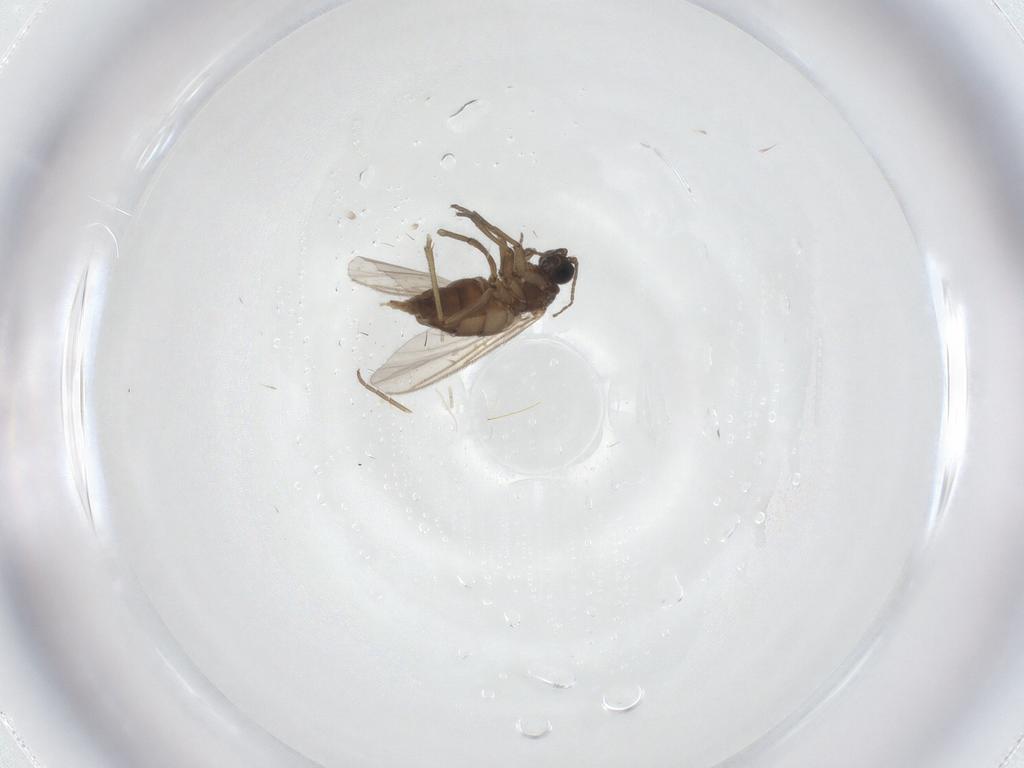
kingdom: Animalia
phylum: Arthropoda
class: Insecta
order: Diptera
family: Sciaridae
